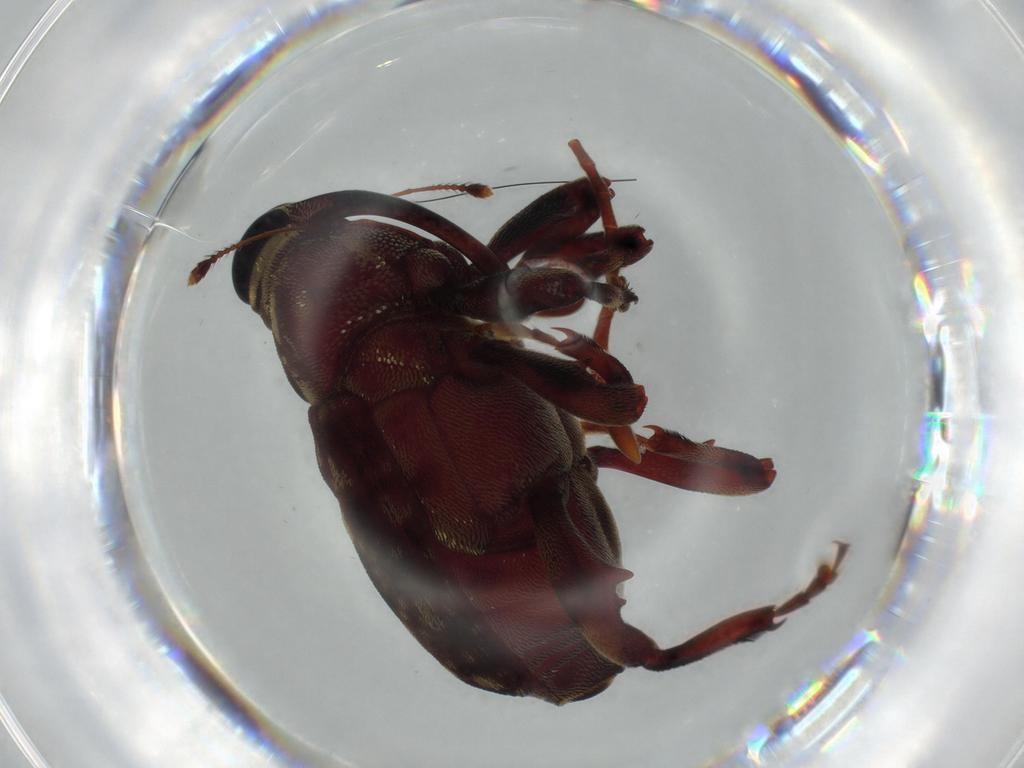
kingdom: Animalia
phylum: Arthropoda
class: Insecta
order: Coleoptera
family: Curculionidae
